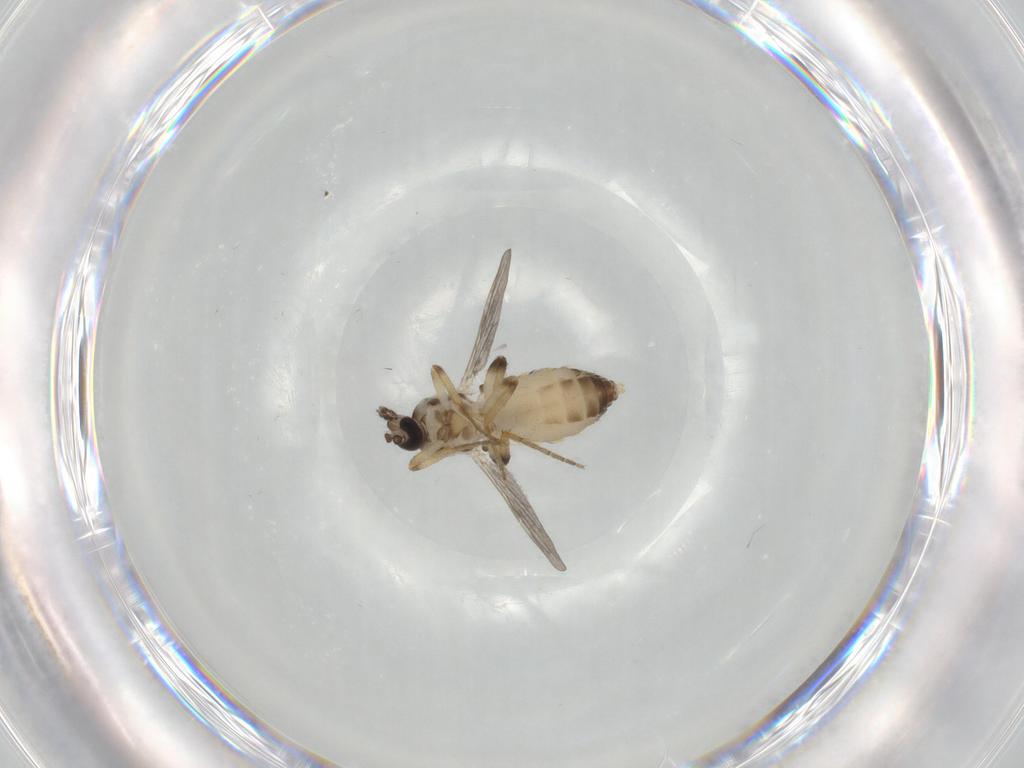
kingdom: Animalia
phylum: Arthropoda
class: Insecta
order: Diptera
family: Ceratopogonidae
